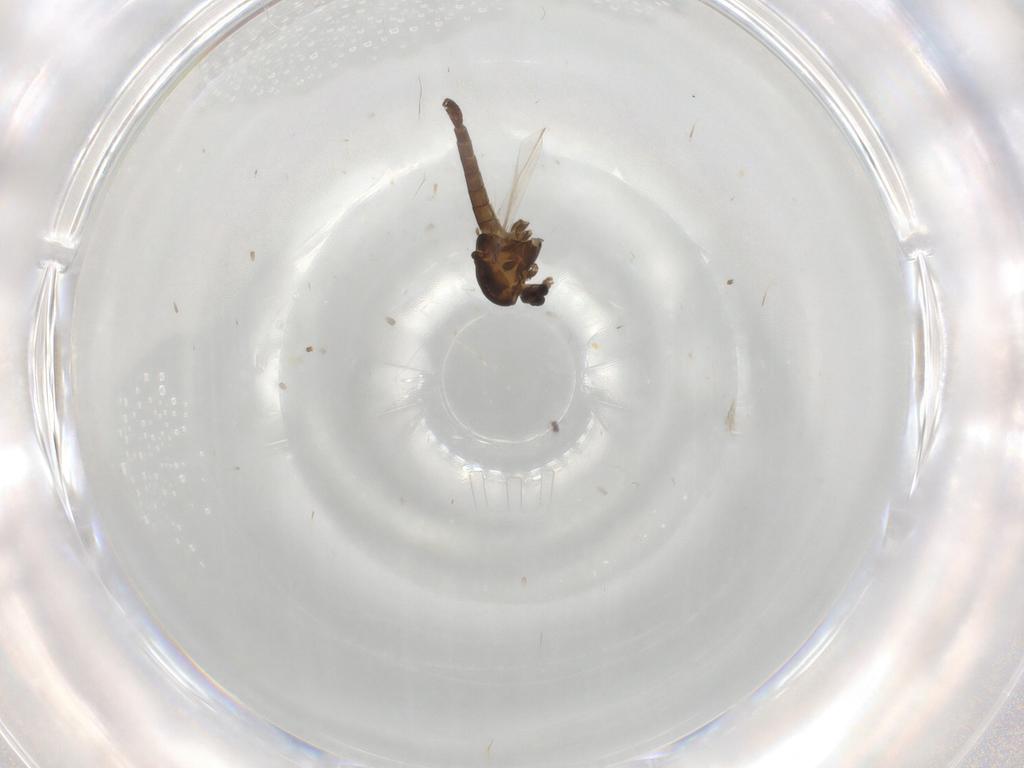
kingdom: Animalia
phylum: Arthropoda
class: Insecta
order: Diptera
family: Chironomidae
